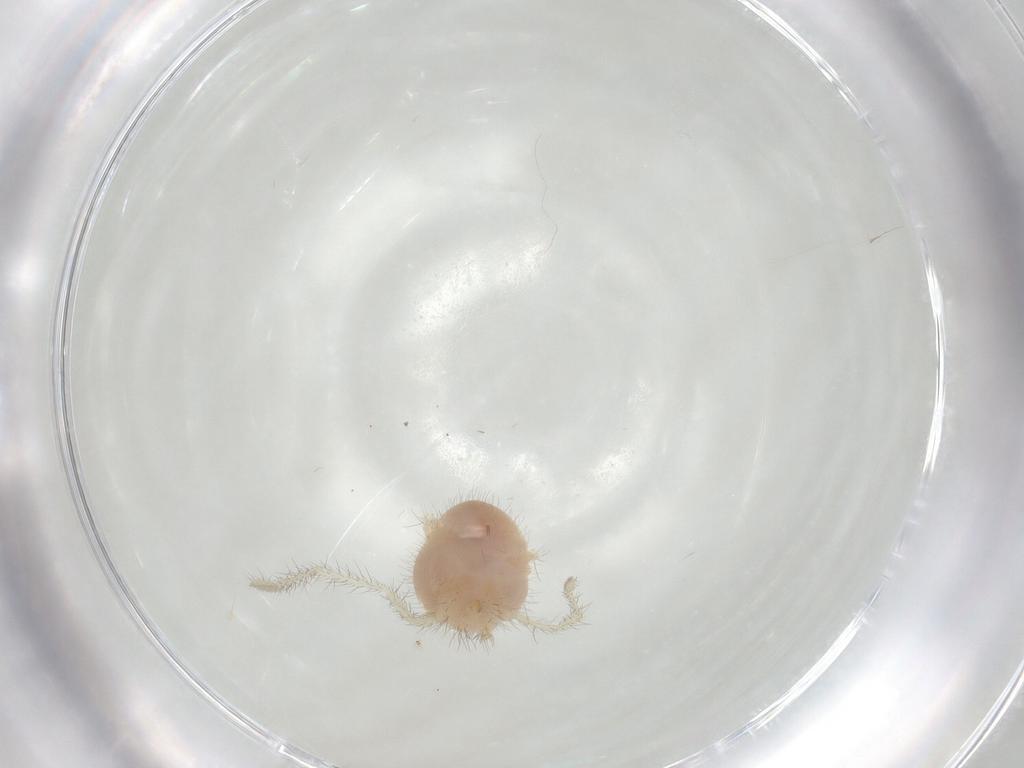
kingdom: Animalia
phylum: Arthropoda
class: Arachnida
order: Trombidiformes
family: Erythraeidae
